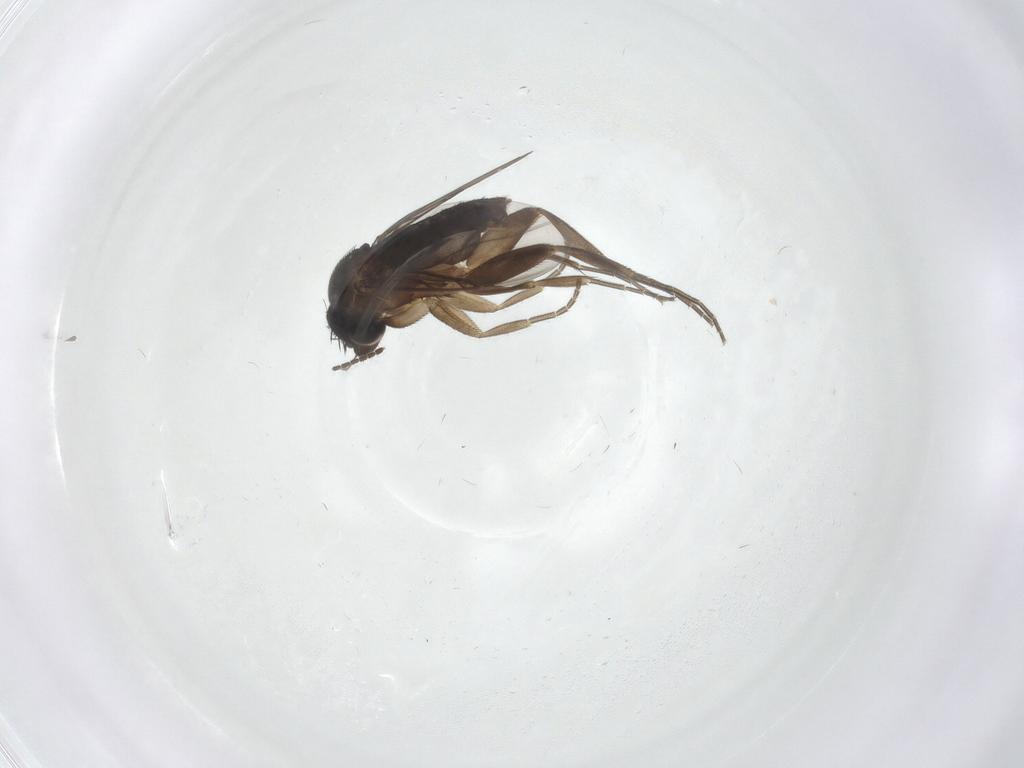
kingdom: Animalia
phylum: Arthropoda
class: Insecta
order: Diptera
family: Phoridae
